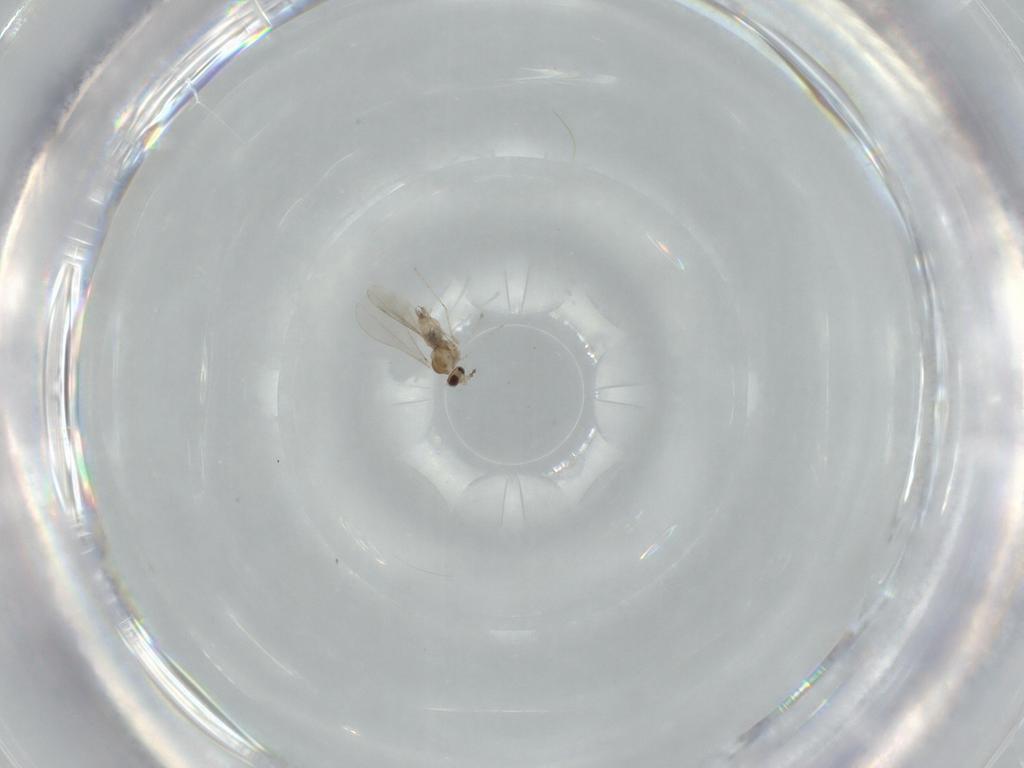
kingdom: Animalia
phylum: Arthropoda
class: Insecta
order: Diptera
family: Cecidomyiidae
